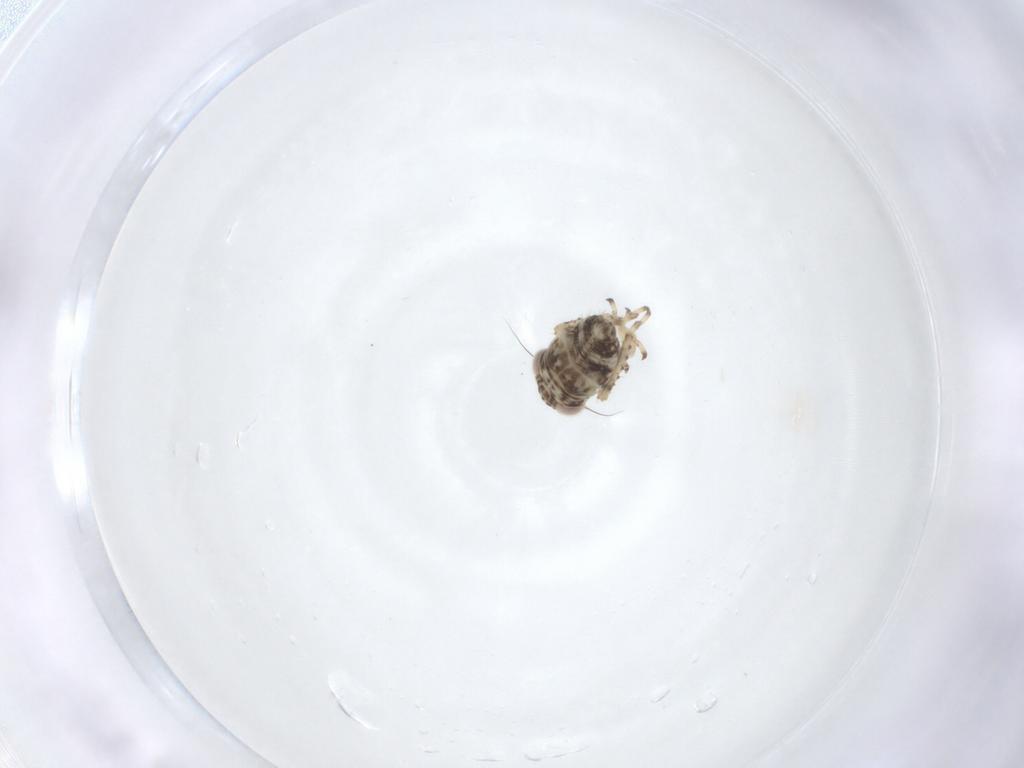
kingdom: Animalia
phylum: Arthropoda
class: Insecta
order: Hemiptera
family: Cicadellidae
